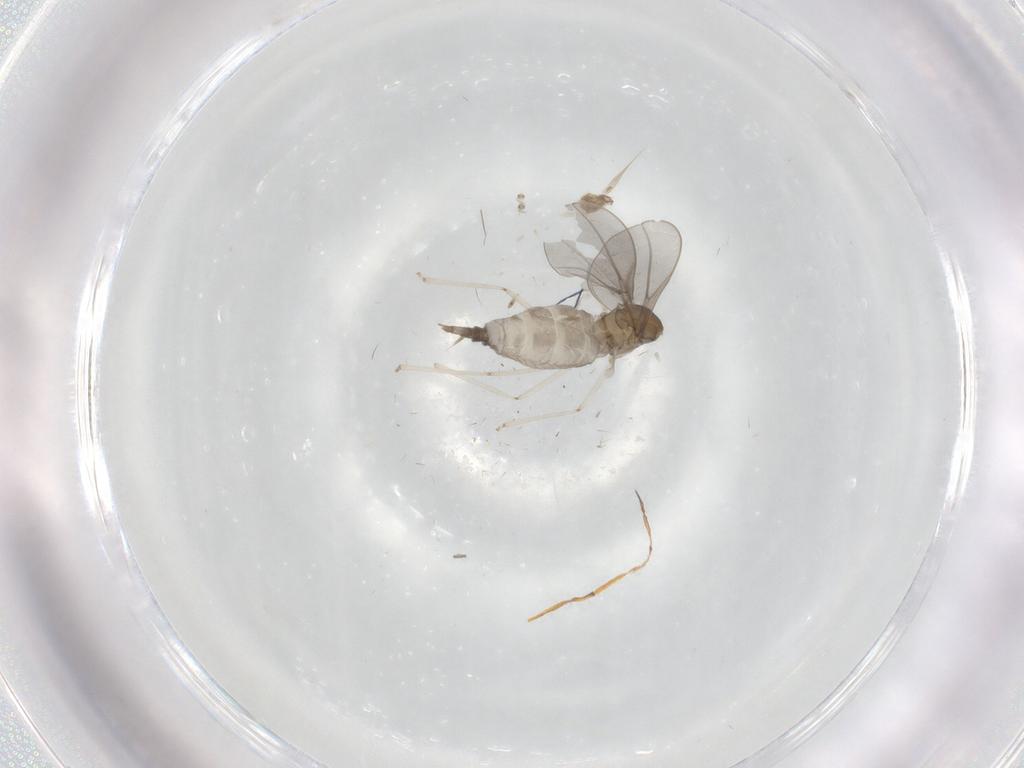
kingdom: Animalia
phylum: Arthropoda
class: Insecta
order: Diptera
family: Cecidomyiidae
